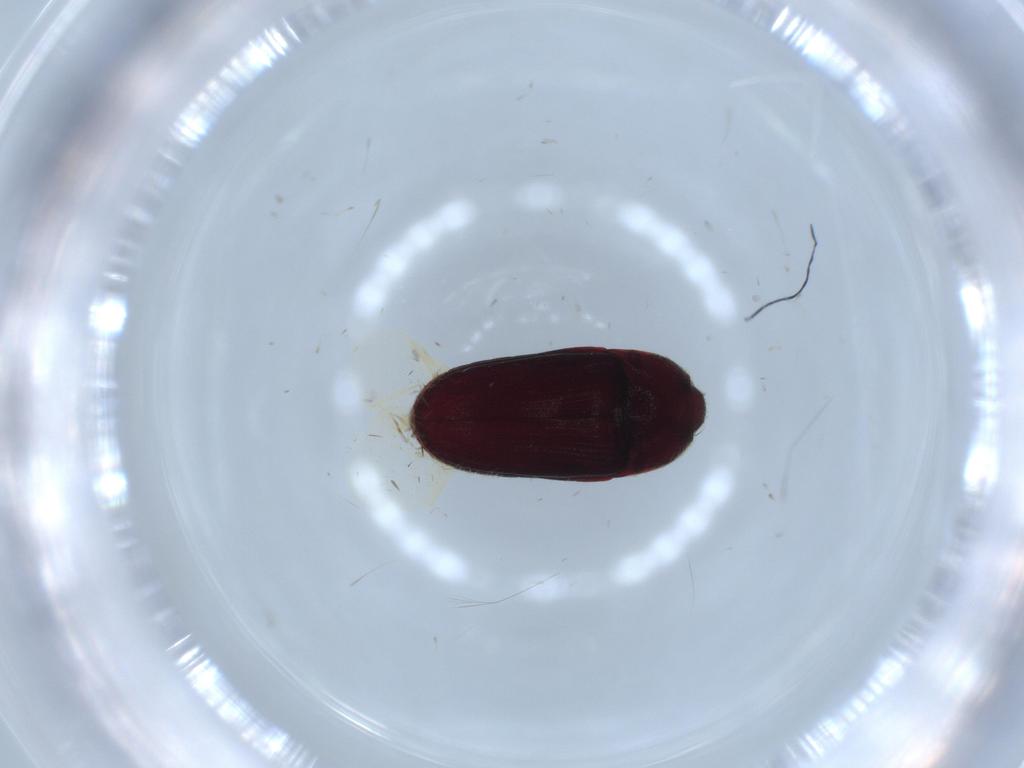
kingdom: Animalia
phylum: Arthropoda
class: Insecta
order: Coleoptera
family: Throscidae
